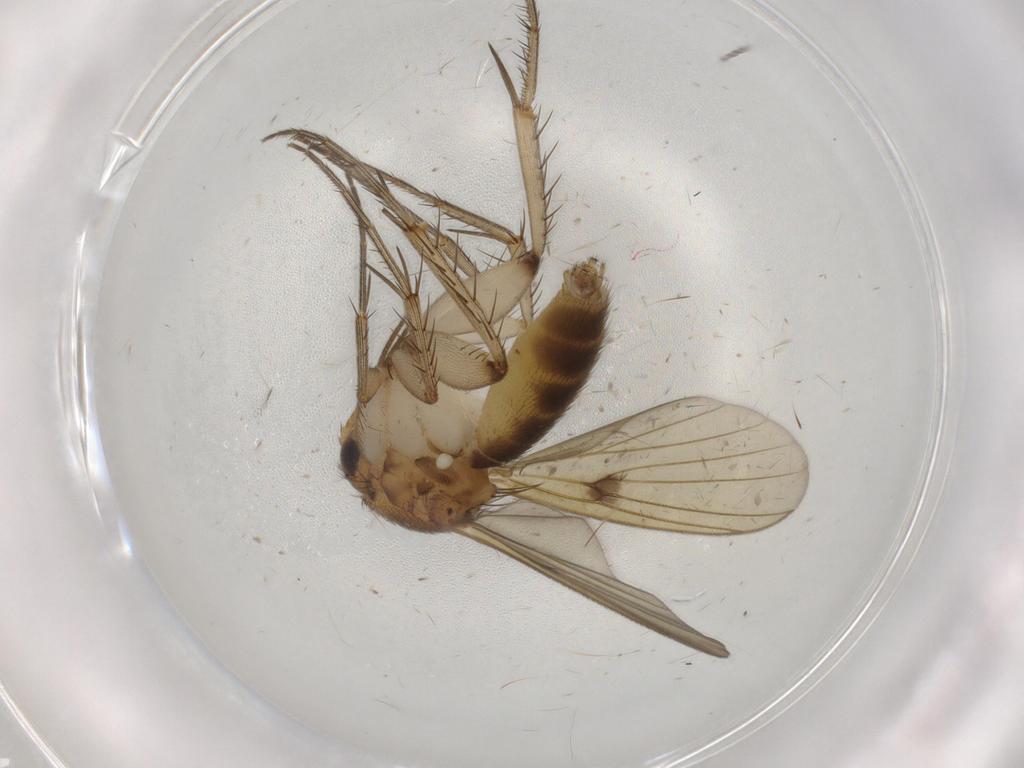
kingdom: Animalia
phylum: Arthropoda
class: Insecta
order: Diptera
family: Mycetophilidae
